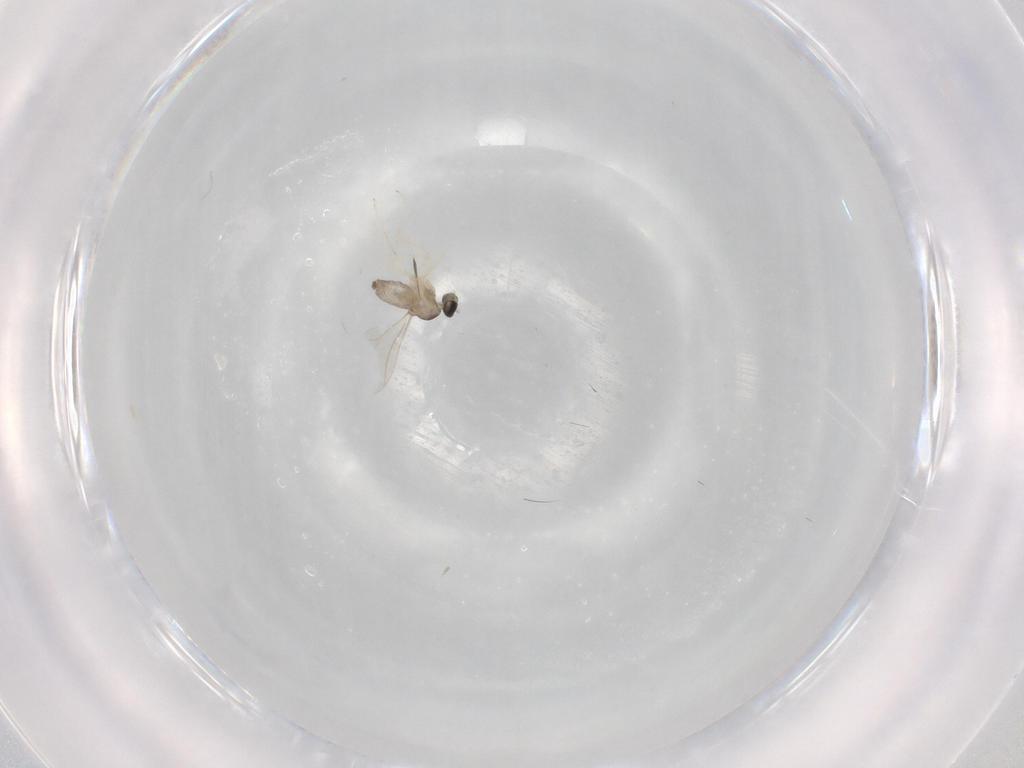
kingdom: Animalia
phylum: Arthropoda
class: Insecta
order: Diptera
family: Cecidomyiidae
